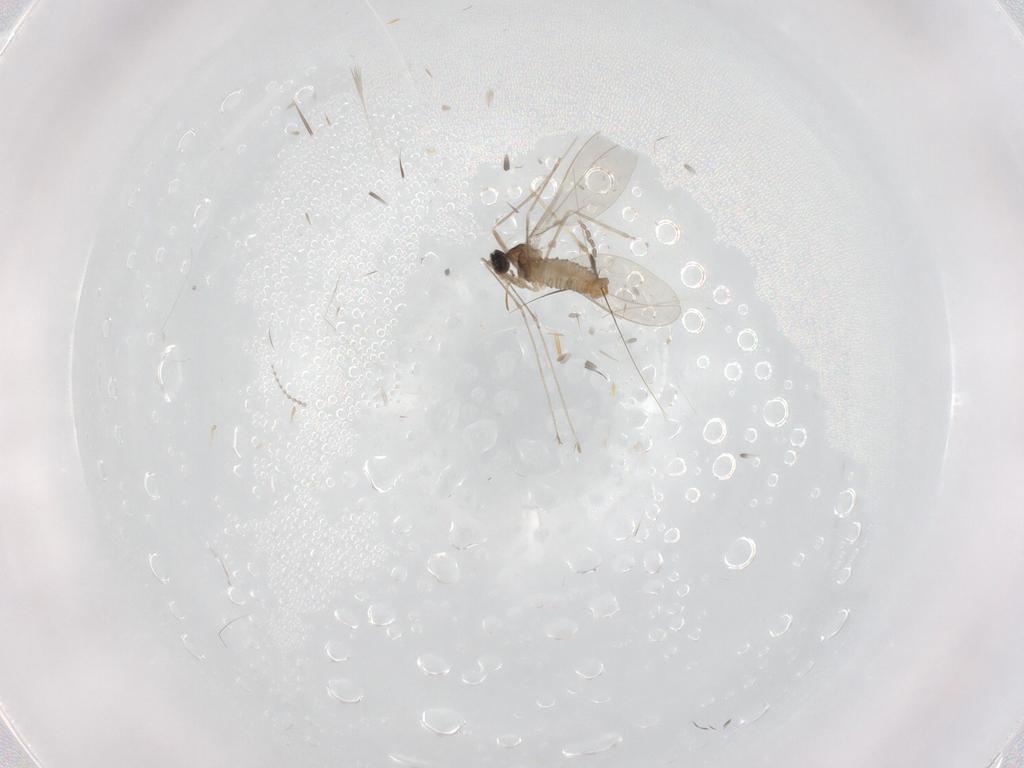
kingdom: Animalia
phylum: Arthropoda
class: Insecta
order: Diptera
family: Cecidomyiidae
